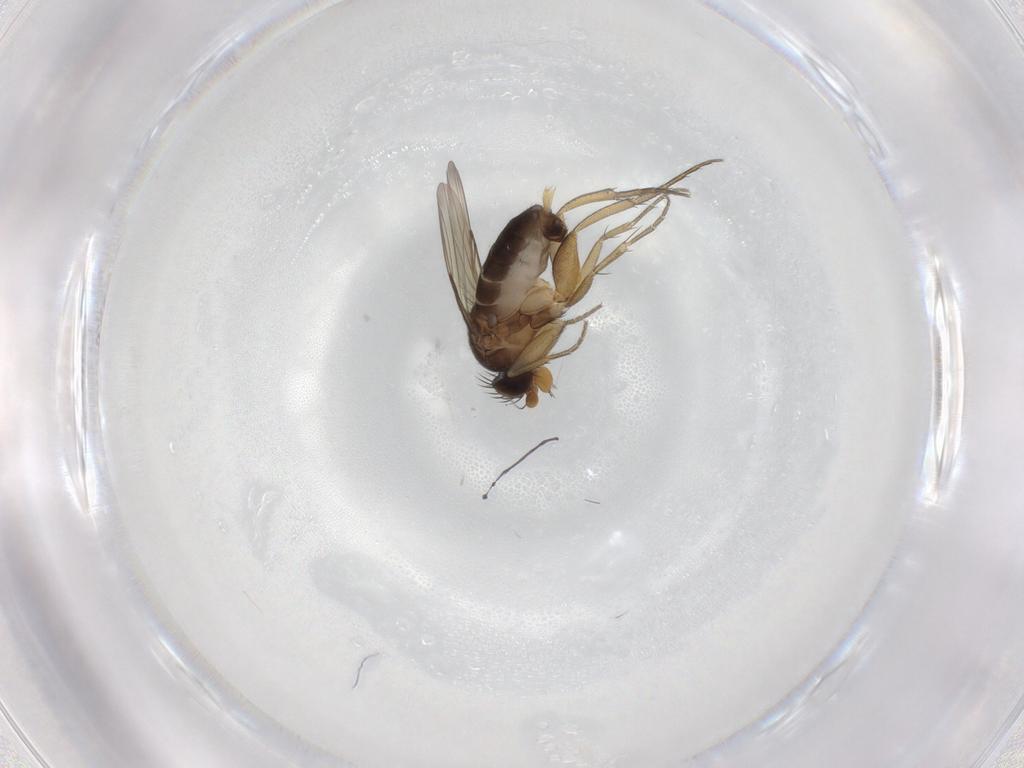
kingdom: Animalia
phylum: Arthropoda
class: Insecta
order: Diptera
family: Phoridae
